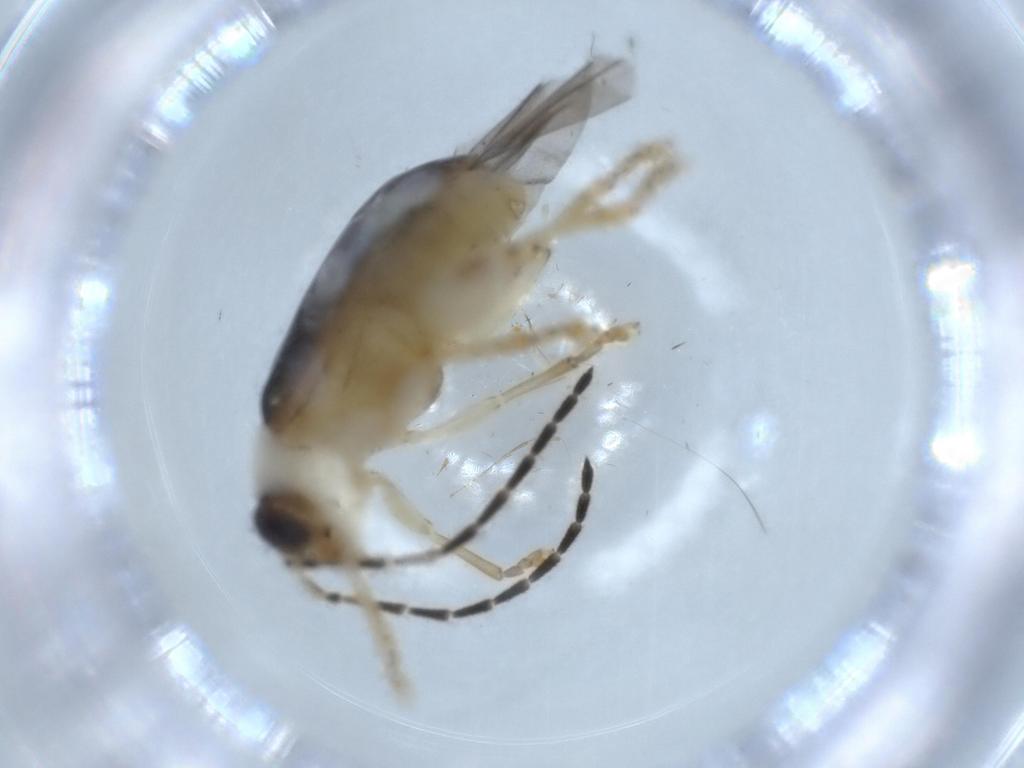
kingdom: Animalia
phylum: Arthropoda
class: Insecta
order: Coleoptera
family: Chrysomelidae
